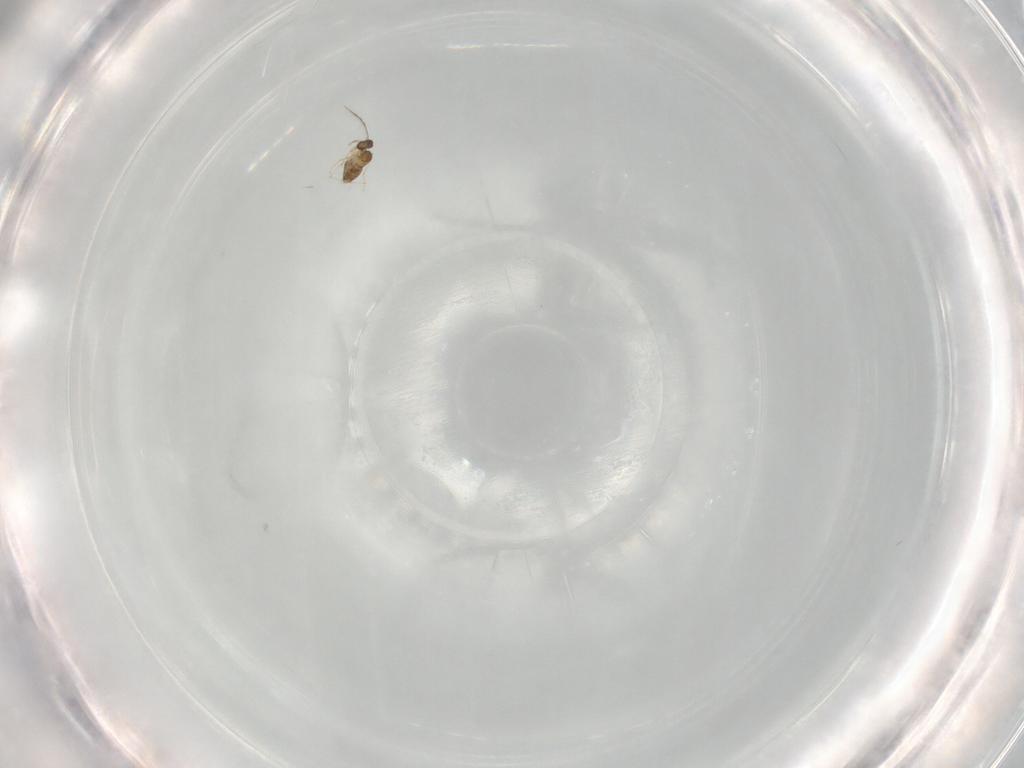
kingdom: Animalia
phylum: Arthropoda
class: Insecta
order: Hymenoptera
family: Vespidae
